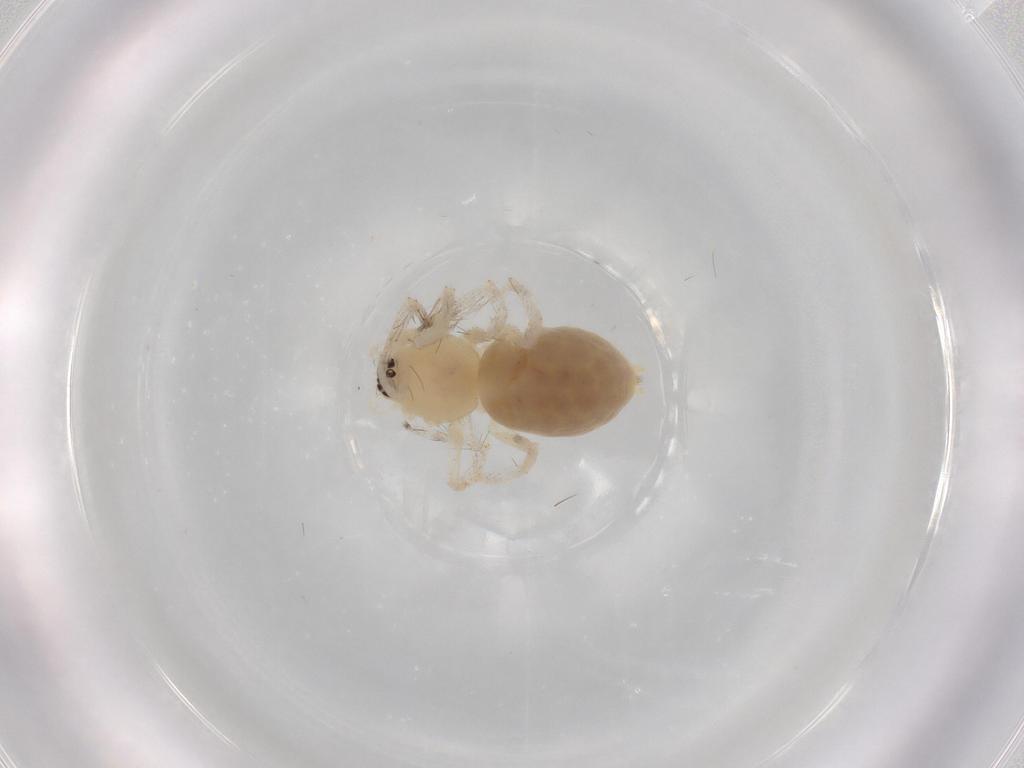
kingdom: Animalia
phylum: Arthropoda
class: Arachnida
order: Araneae
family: Anyphaenidae
